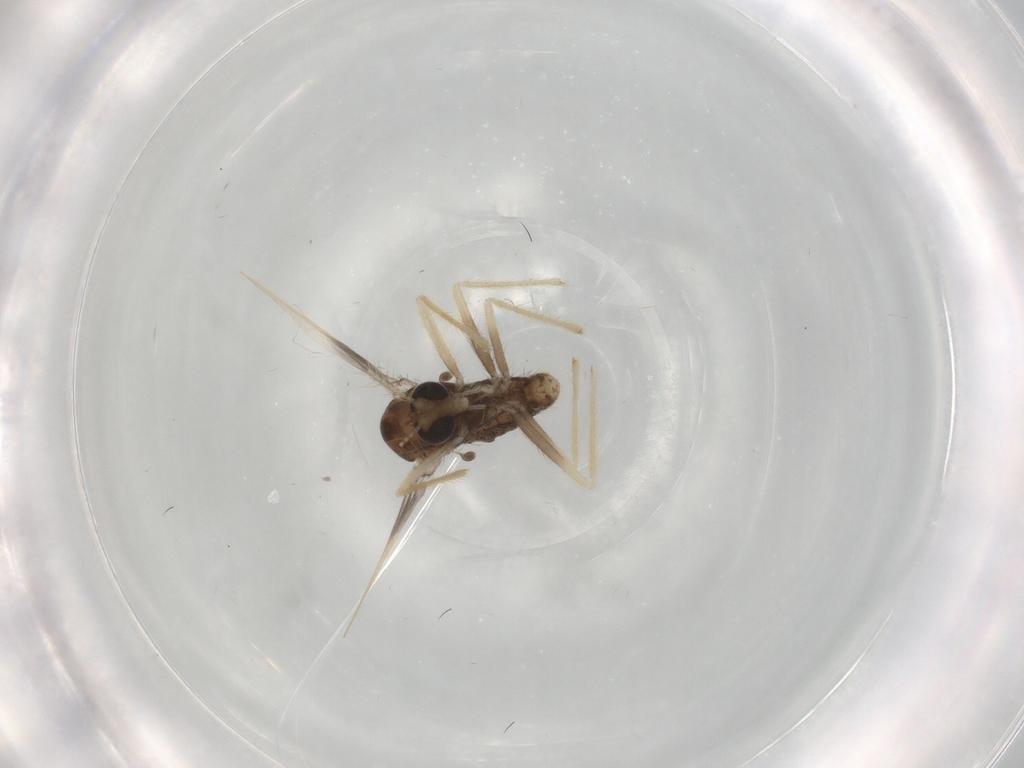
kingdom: Animalia
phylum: Arthropoda
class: Insecta
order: Diptera
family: Chironomidae
